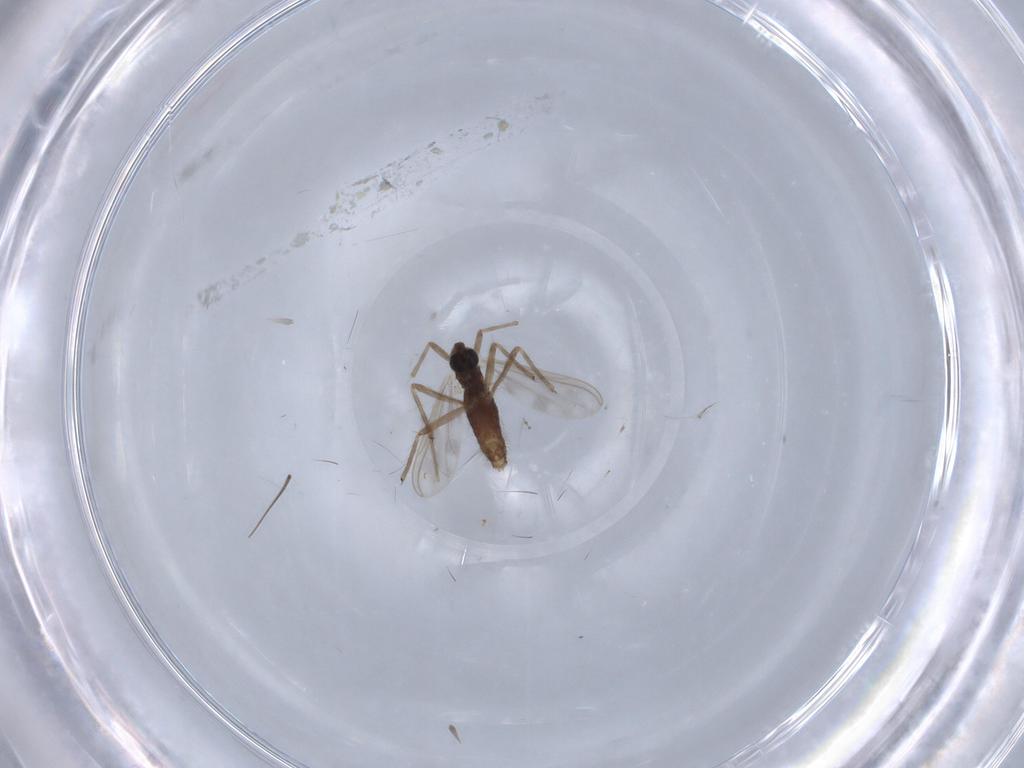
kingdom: Animalia
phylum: Arthropoda
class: Insecta
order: Diptera
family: Chironomidae
